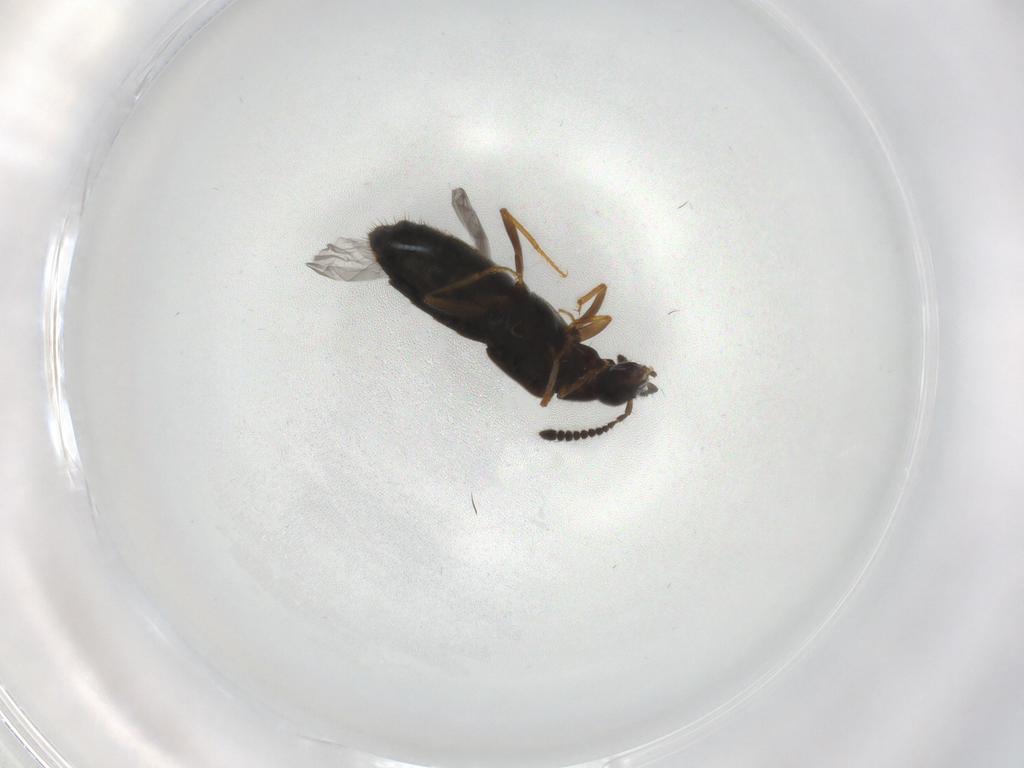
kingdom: Animalia
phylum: Arthropoda
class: Insecta
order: Coleoptera
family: Staphylinidae
